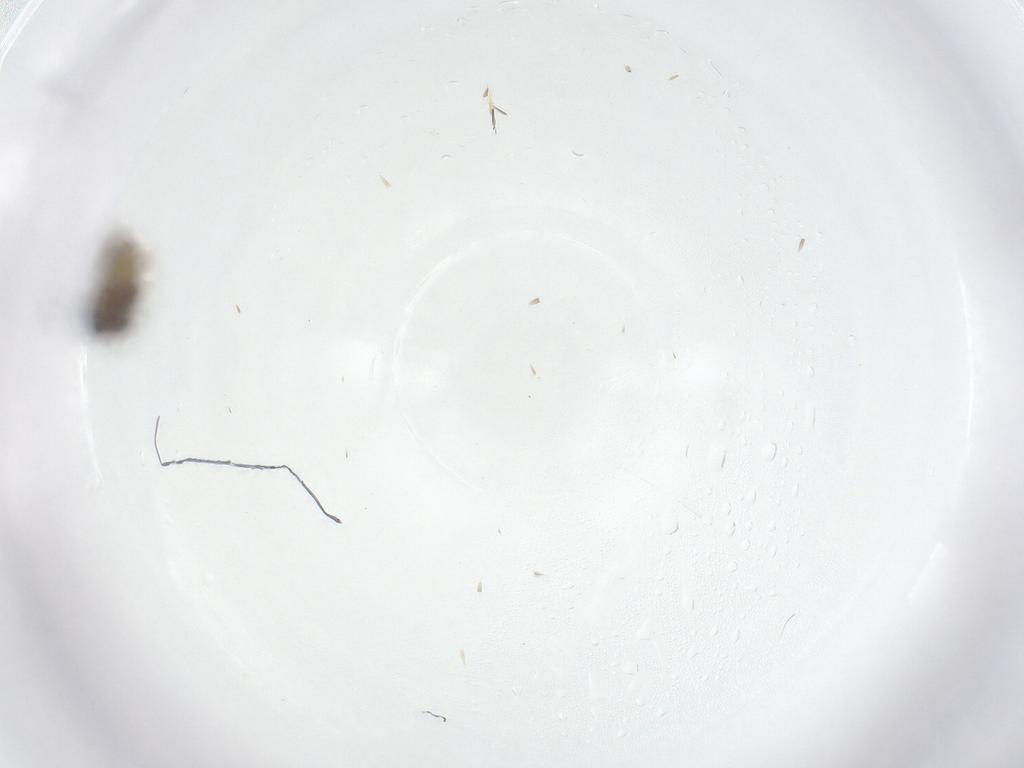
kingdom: Animalia
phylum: Arthropoda
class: Insecta
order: Diptera
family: Ceratopogonidae
